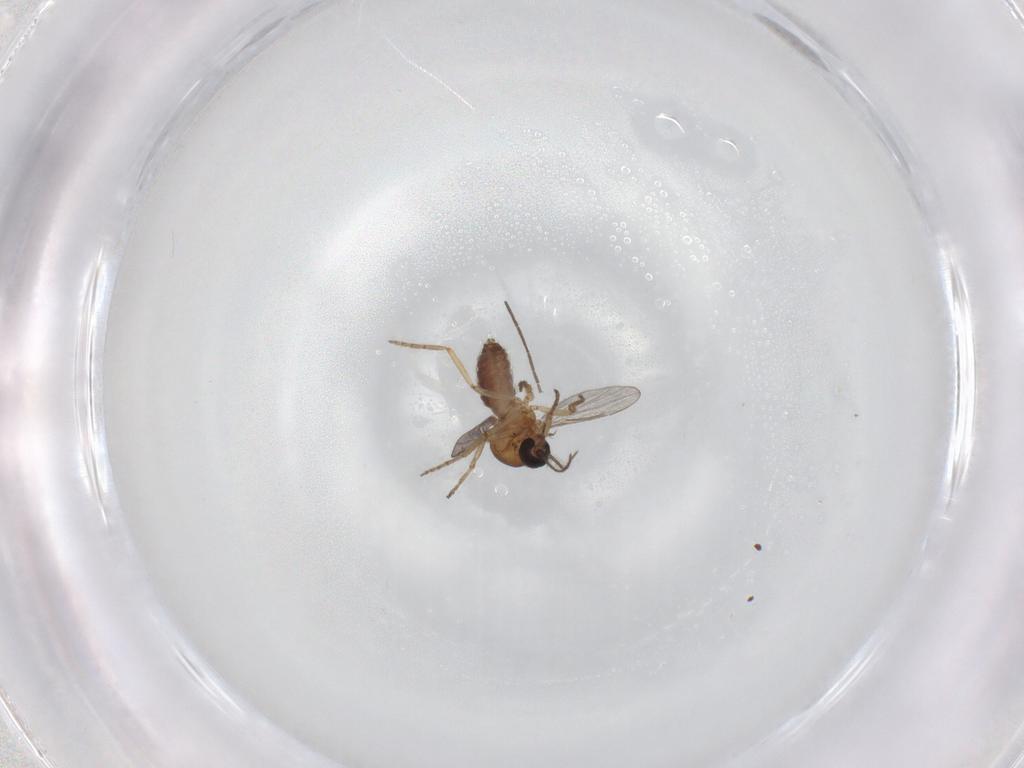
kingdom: Animalia
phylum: Arthropoda
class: Insecta
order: Diptera
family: Chironomidae
